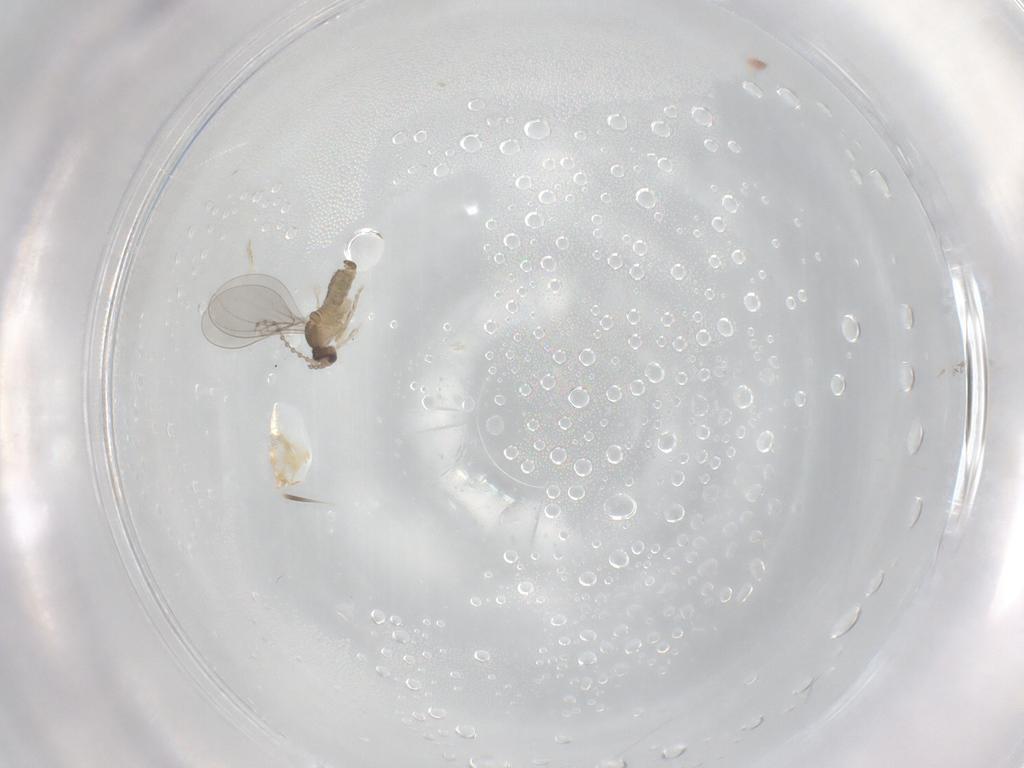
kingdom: Animalia
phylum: Arthropoda
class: Insecta
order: Diptera
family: Cecidomyiidae
